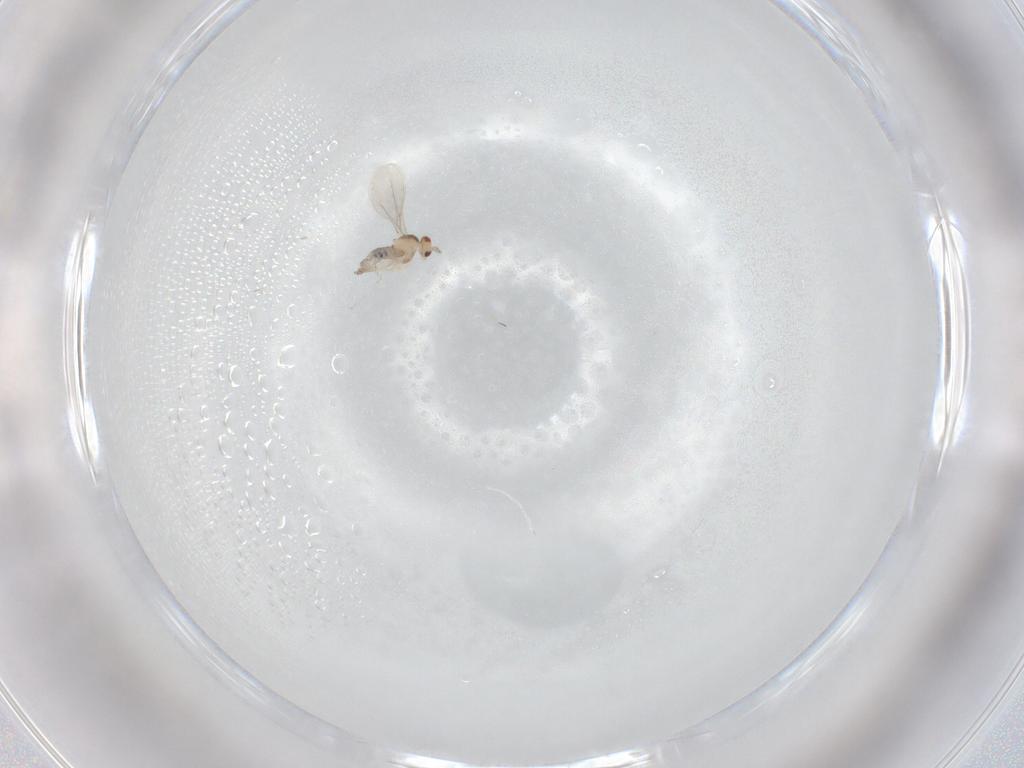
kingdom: Animalia
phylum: Arthropoda
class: Insecta
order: Diptera
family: Cecidomyiidae
